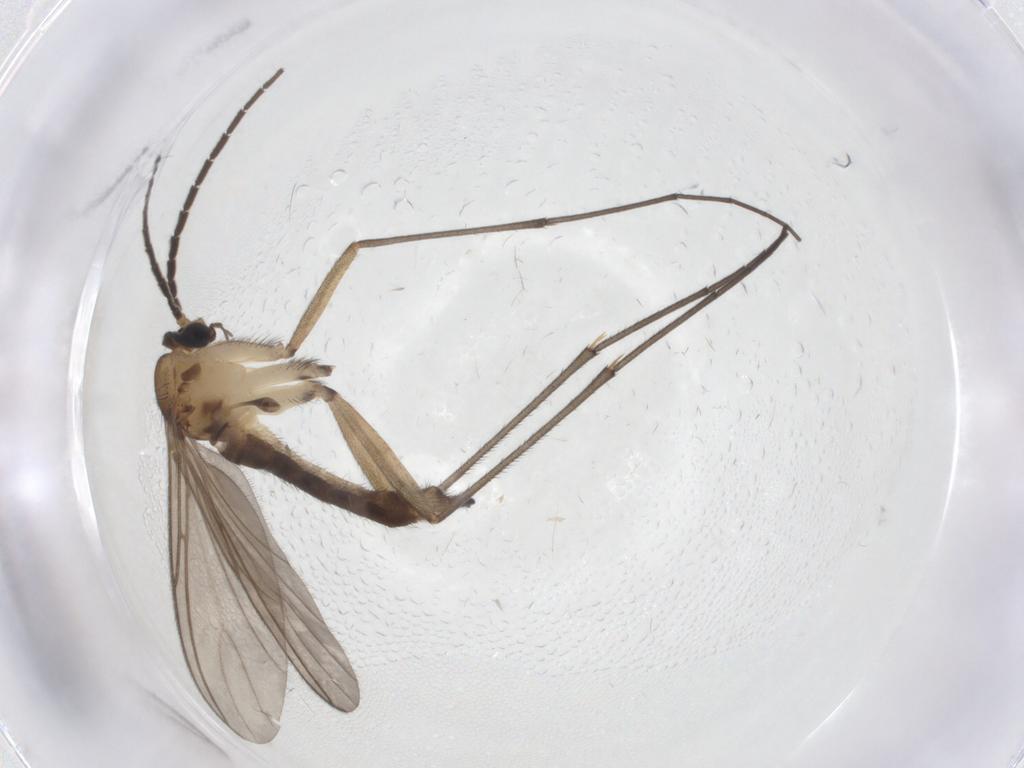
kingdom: Animalia
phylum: Arthropoda
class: Insecta
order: Diptera
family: Sciaridae
